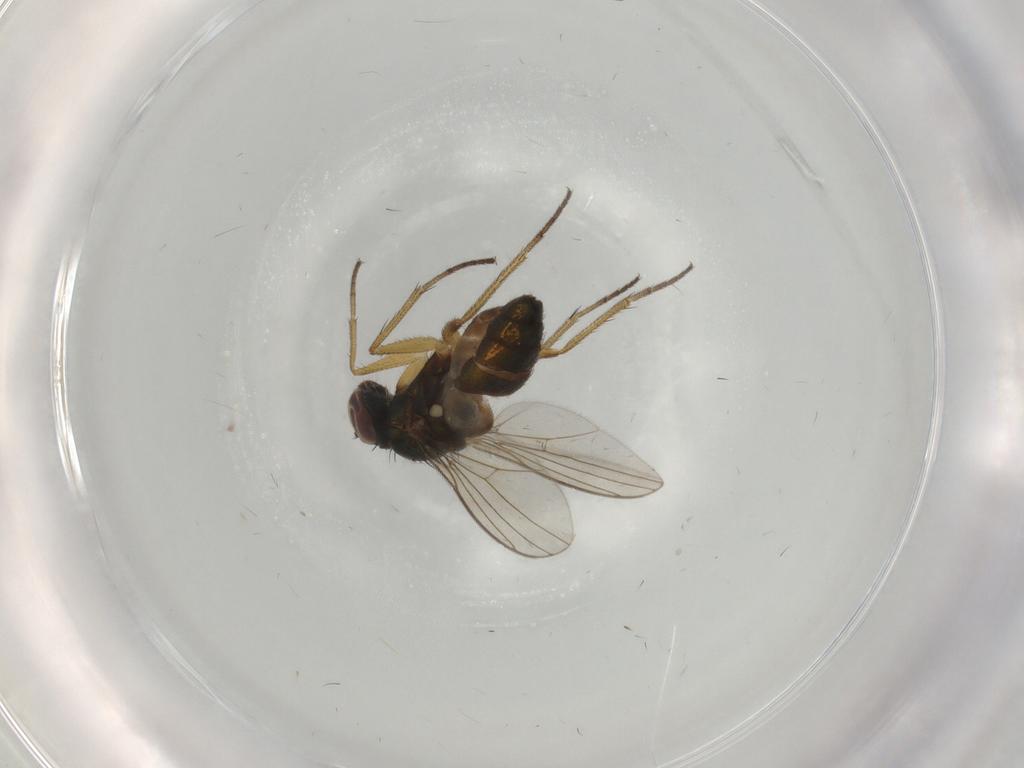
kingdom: Animalia
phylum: Arthropoda
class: Insecta
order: Diptera
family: Dolichopodidae
